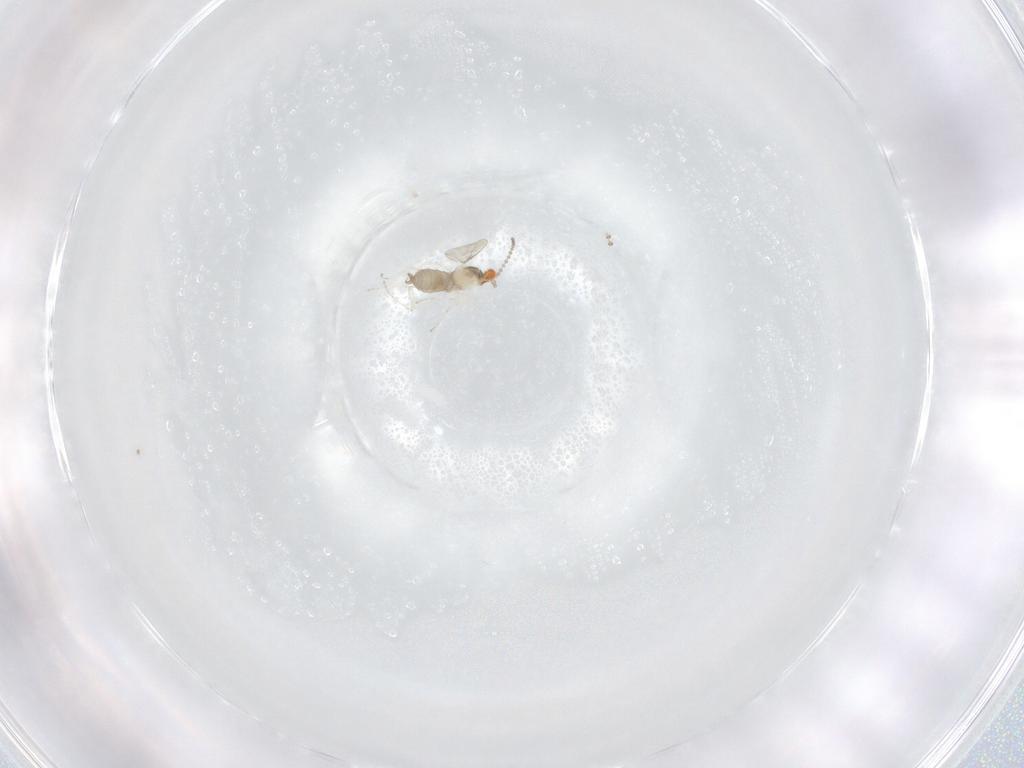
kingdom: Animalia
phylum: Arthropoda
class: Insecta
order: Diptera
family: Cecidomyiidae
